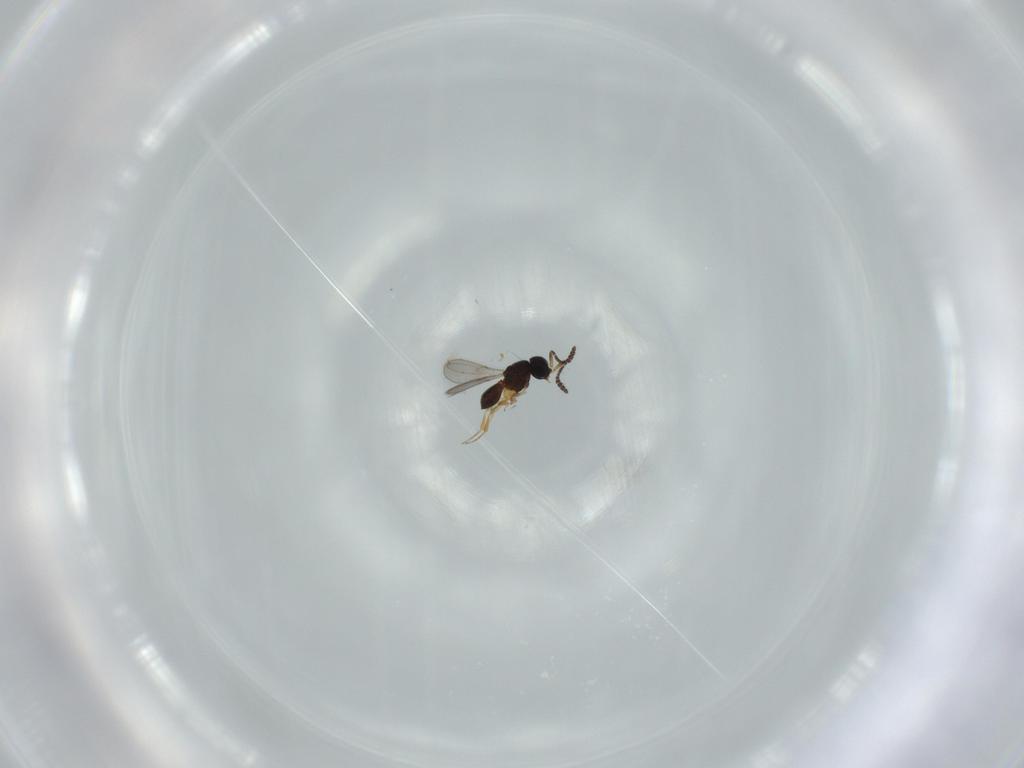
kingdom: Animalia
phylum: Arthropoda
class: Insecta
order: Hymenoptera
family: Scelionidae
